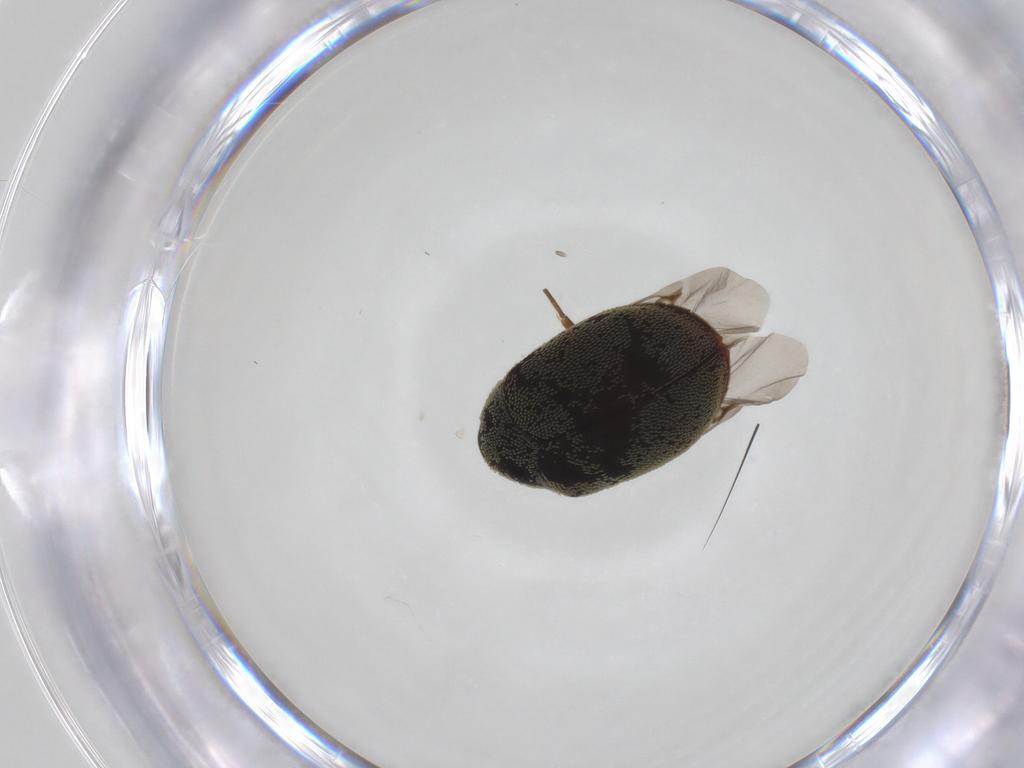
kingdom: Animalia
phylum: Arthropoda
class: Insecta
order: Coleoptera
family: Dermestidae
